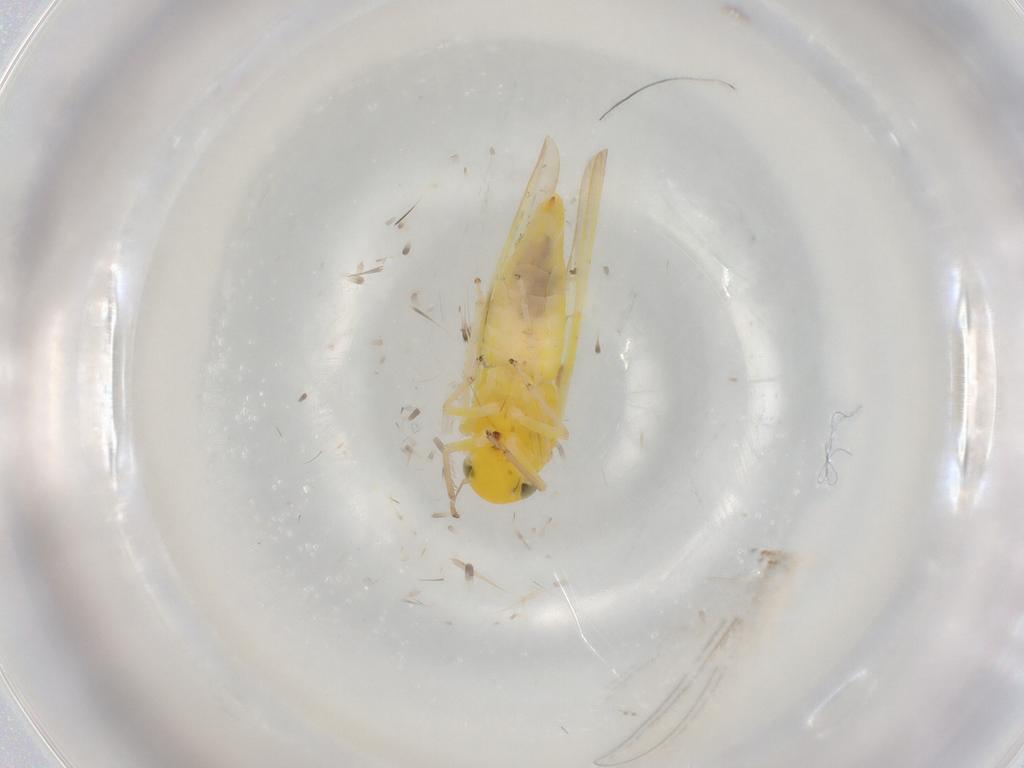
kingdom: Animalia
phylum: Arthropoda
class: Insecta
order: Hemiptera
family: Cicadellidae
